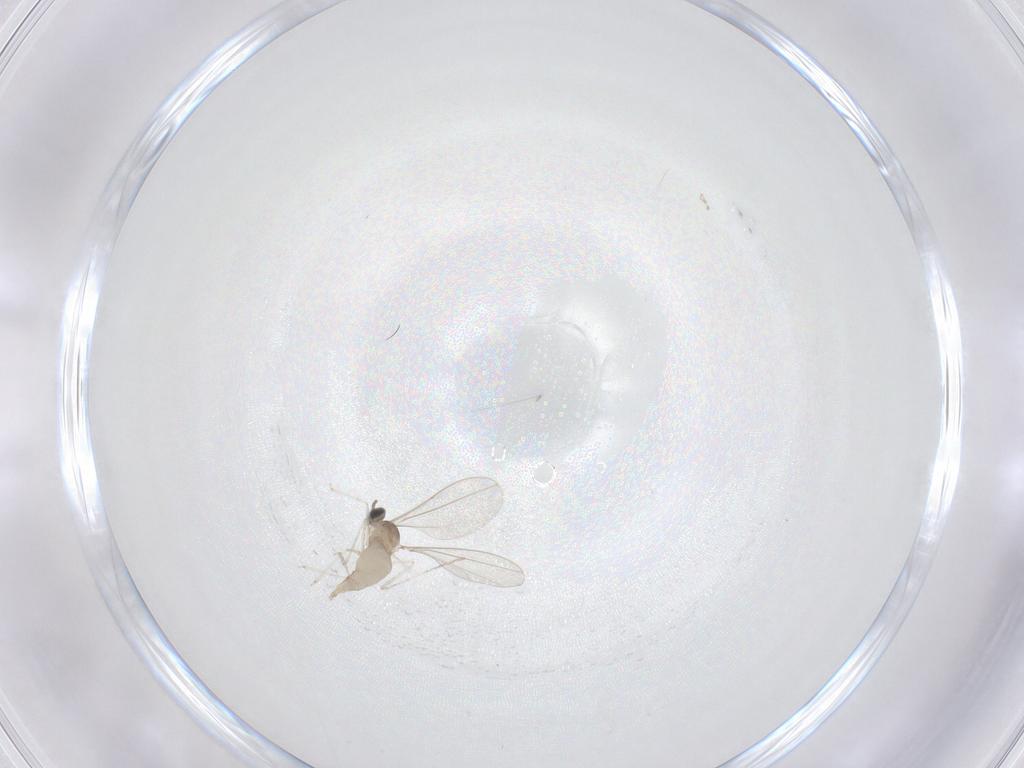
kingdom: Animalia
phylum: Arthropoda
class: Insecta
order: Diptera
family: Cecidomyiidae
